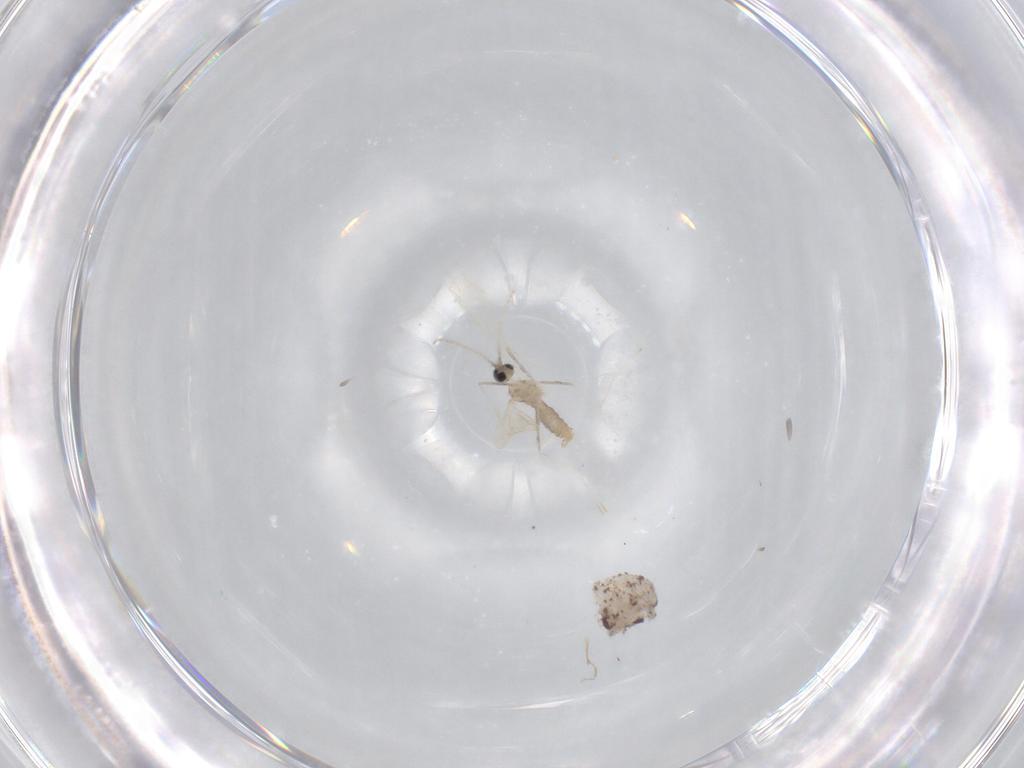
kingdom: Animalia
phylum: Arthropoda
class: Insecta
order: Diptera
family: Cecidomyiidae
